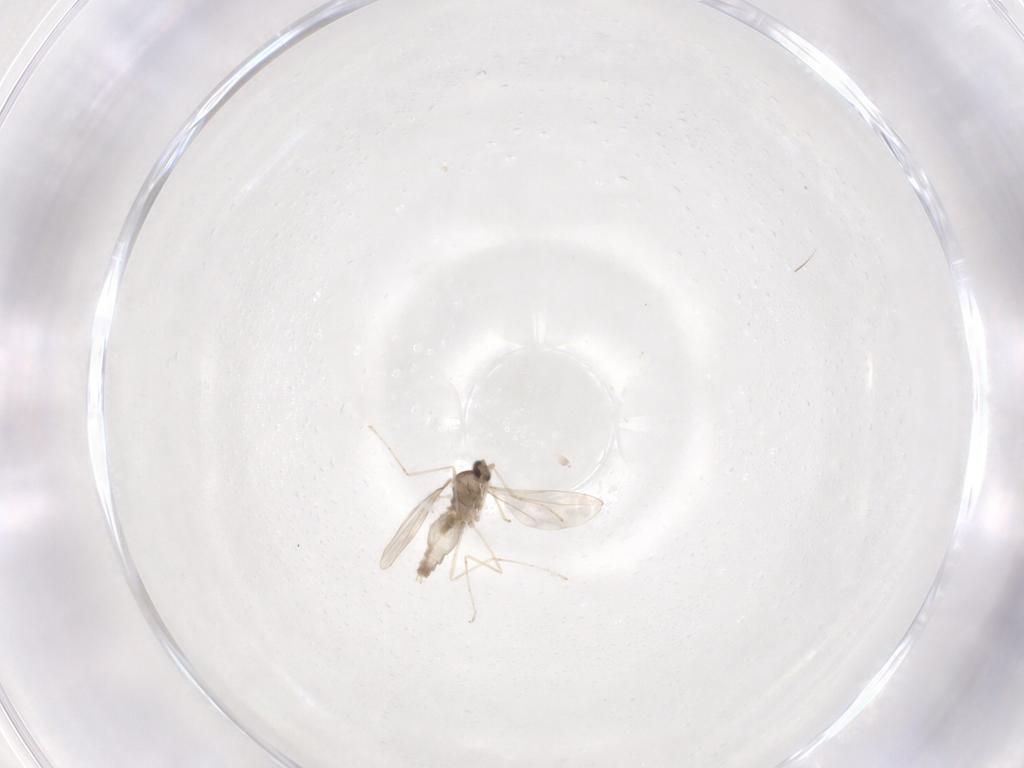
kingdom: Animalia
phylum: Arthropoda
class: Insecta
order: Diptera
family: Cecidomyiidae
